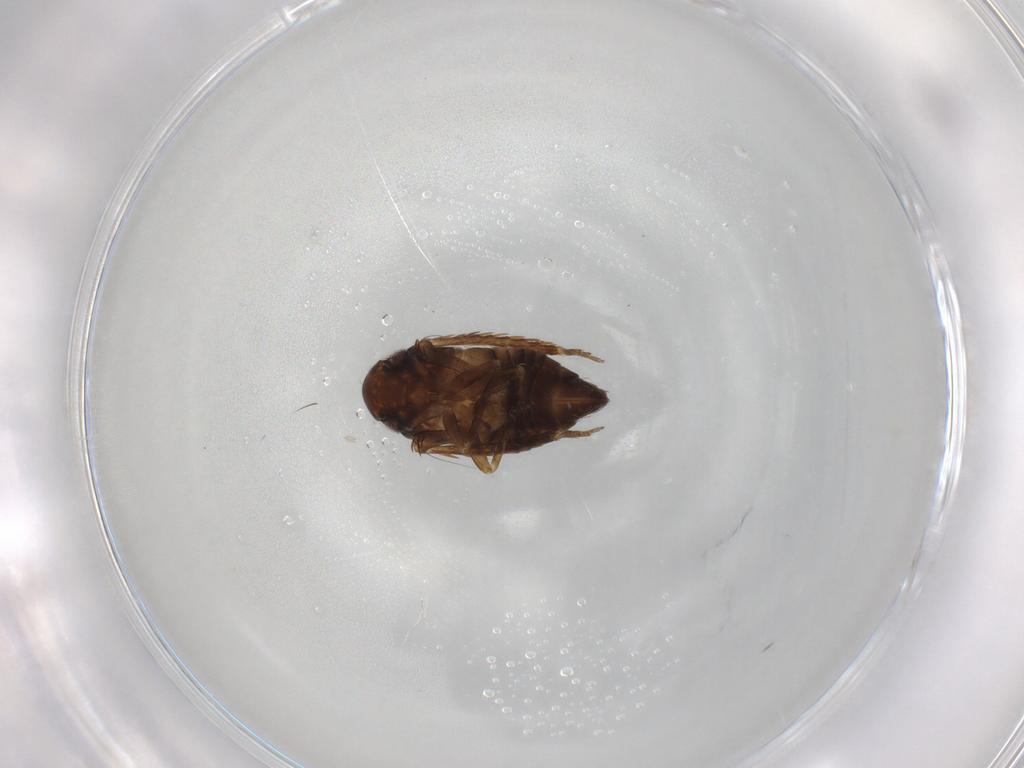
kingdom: Animalia
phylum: Arthropoda
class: Insecta
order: Hemiptera
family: Cicadellidae
